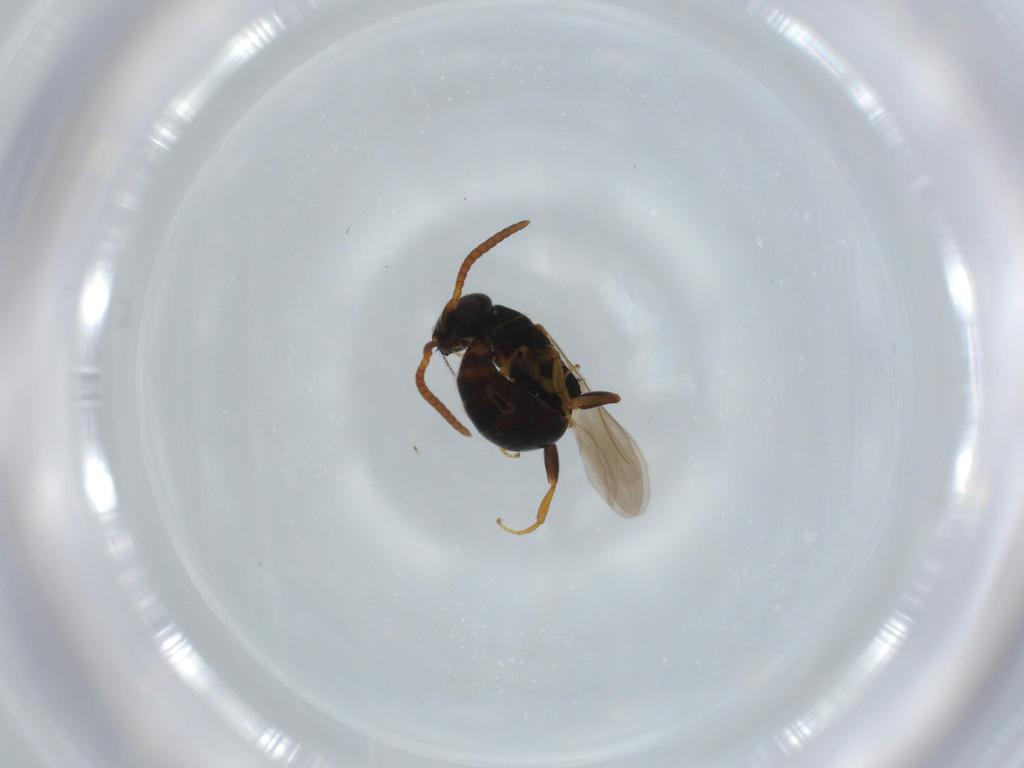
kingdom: Animalia
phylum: Arthropoda
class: Insecta
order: Hymenoptera
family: Bethylidae
